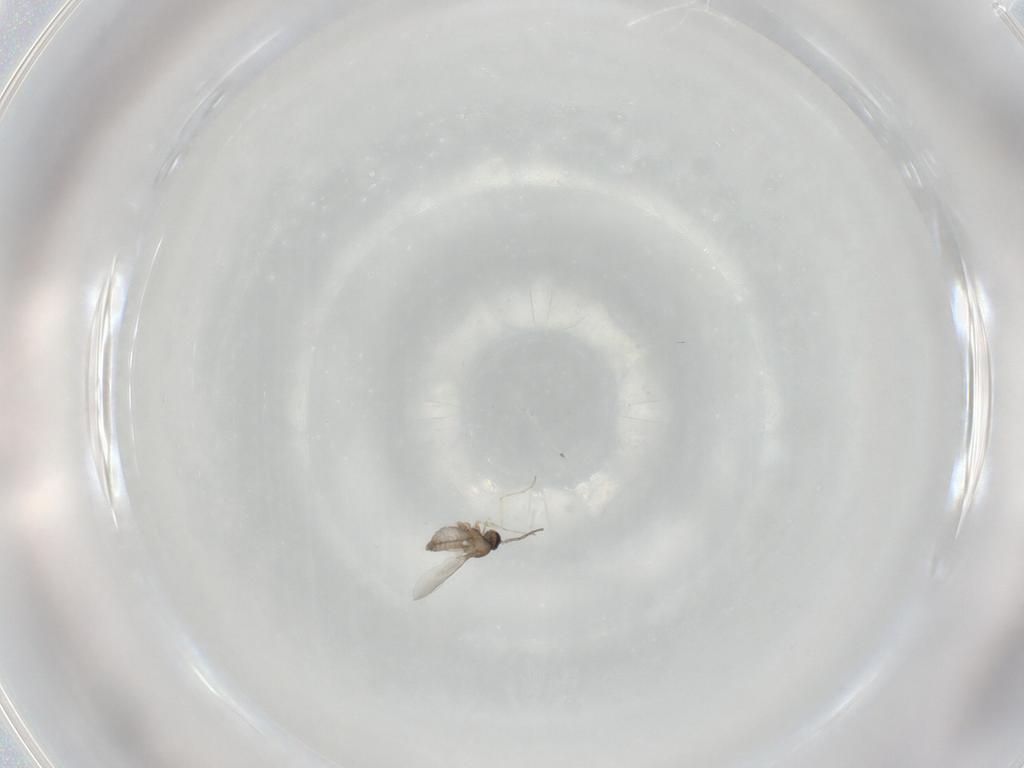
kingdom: Animalia
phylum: Arthropoda
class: Insecta
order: Diptera
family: Cecidomyiidae
